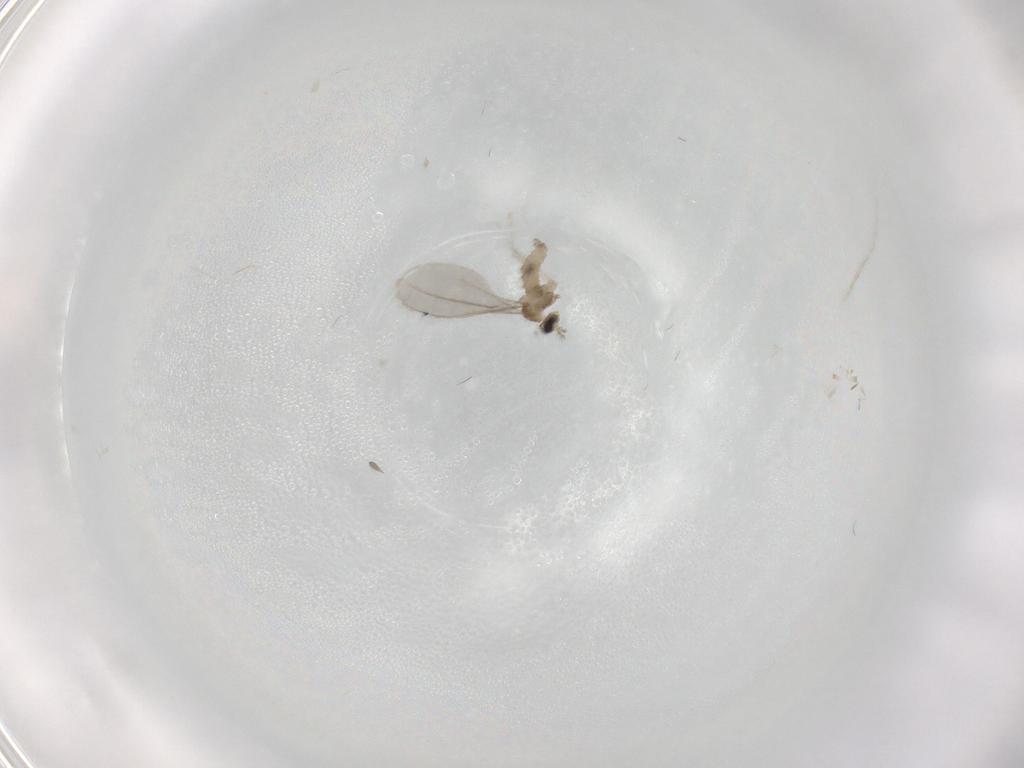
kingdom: Animalia
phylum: Arthropoda
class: Insecta
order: Diptera
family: Cecidomyiidae
